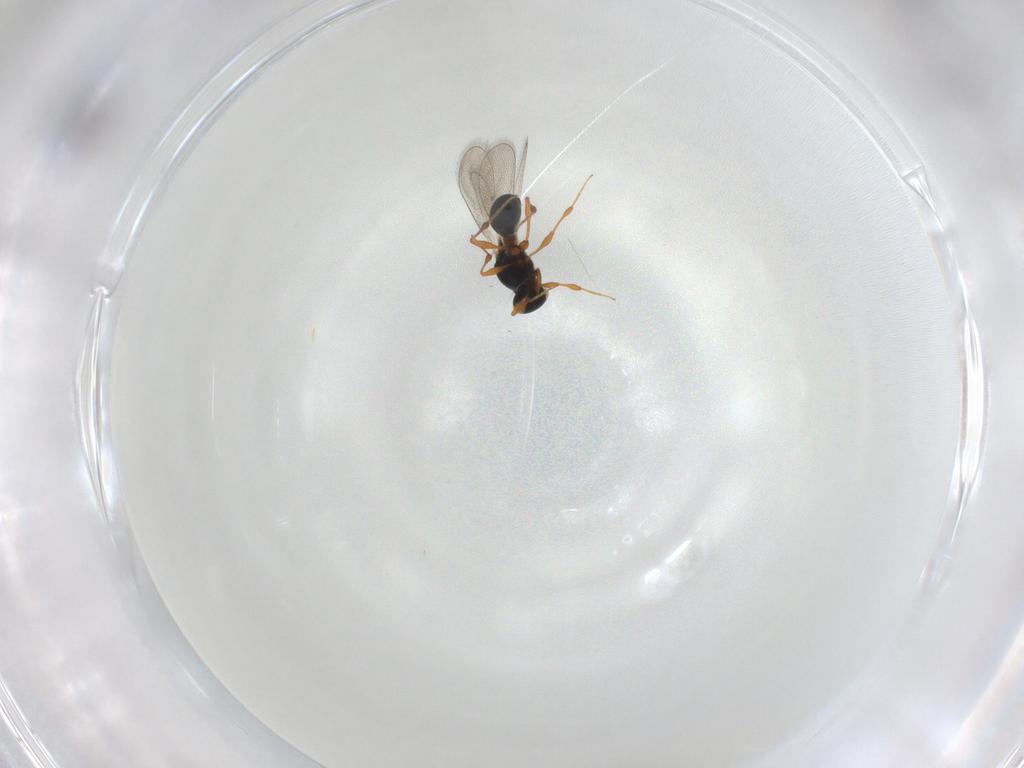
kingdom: Animalia
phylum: Arthropoda
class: Insecta
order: Hymenoptera
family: Platygastridae
